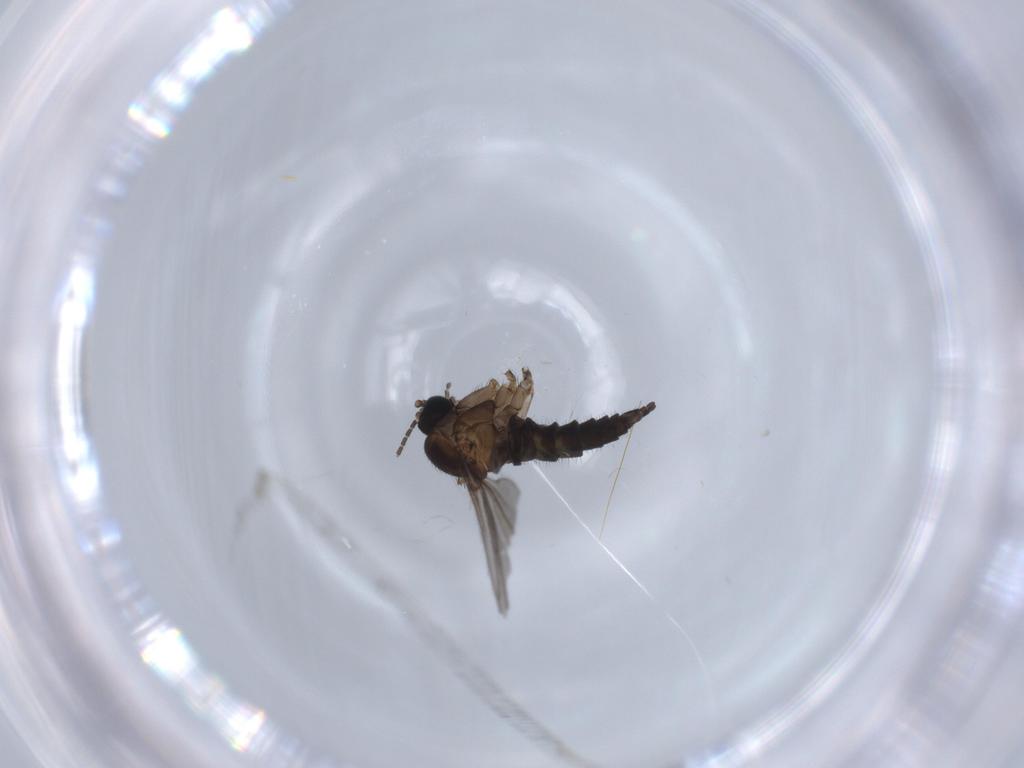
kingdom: Animalia
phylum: Arthropoda
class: Insecta
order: Diptera
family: Sciaridae
